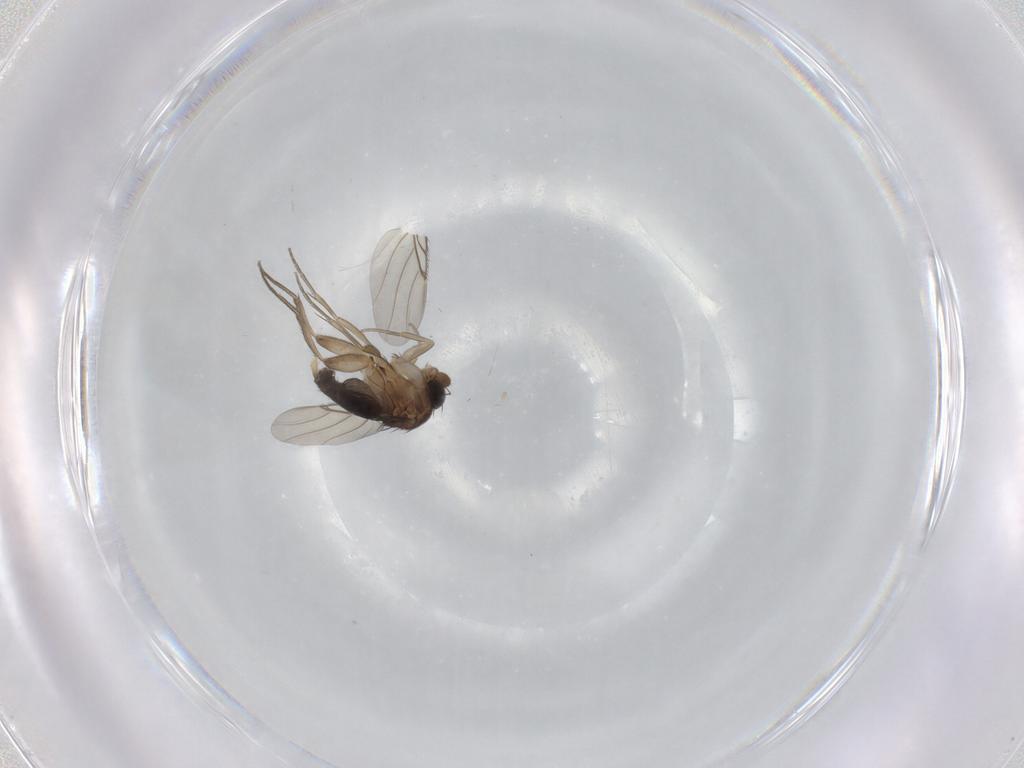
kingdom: Animalia
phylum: Arthropoda
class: Insecta
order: Diptera
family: Phoridae
